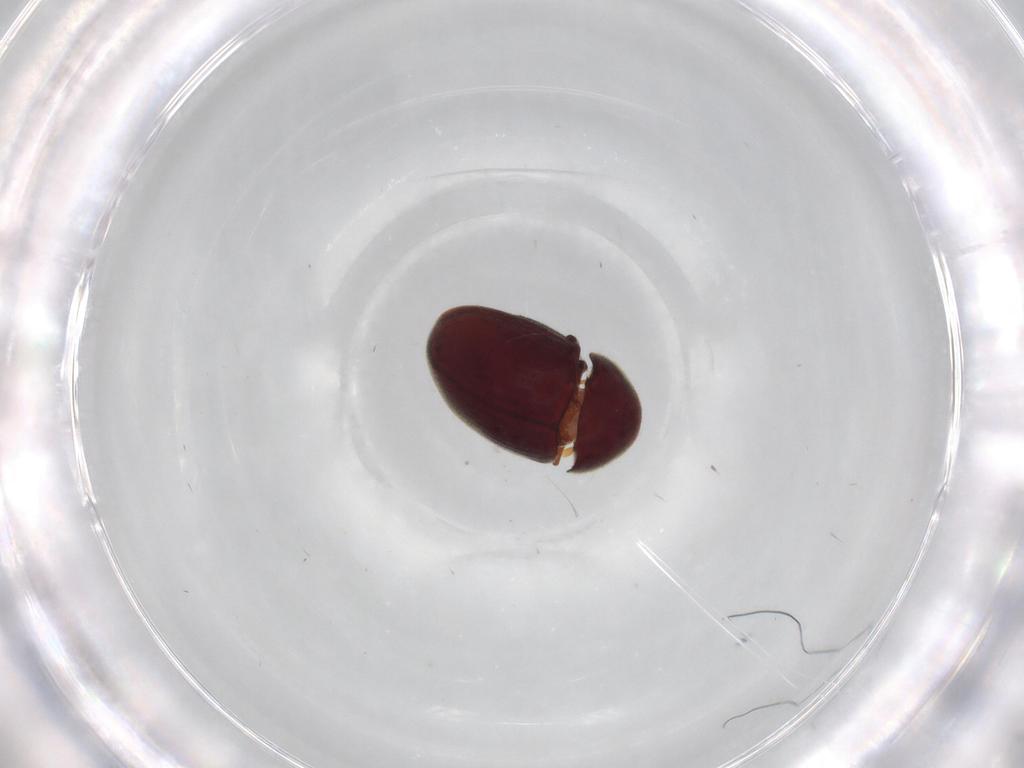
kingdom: Animalia
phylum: Arthropoda
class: Insecta
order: Coleoptera
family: Ptinidae
